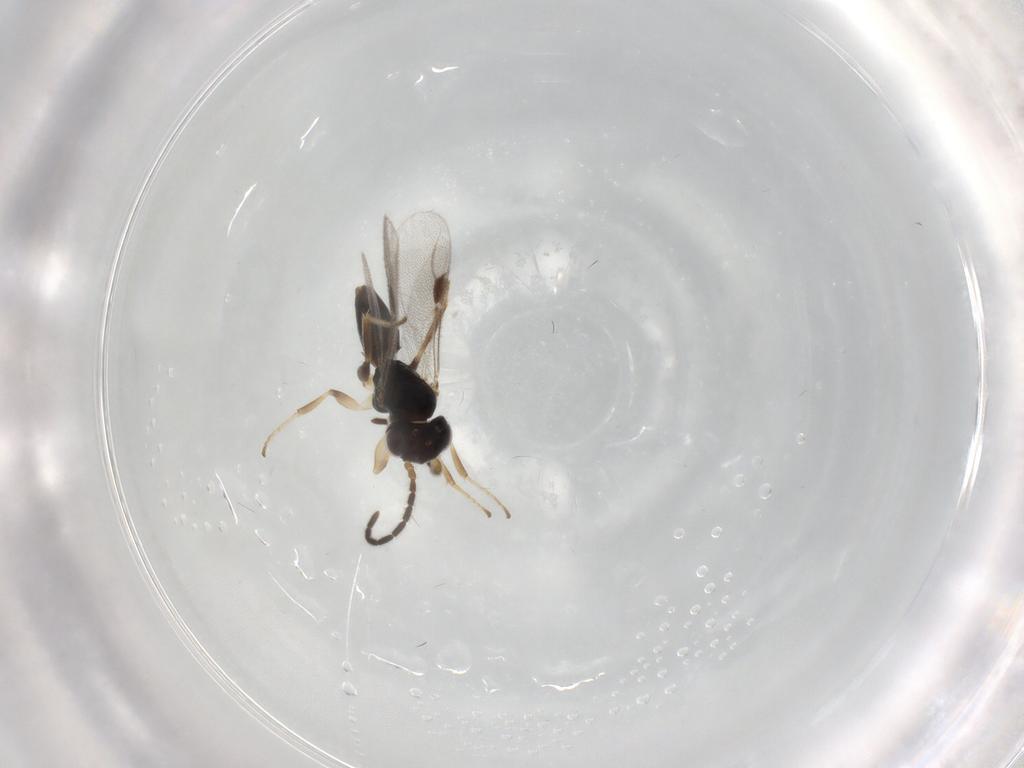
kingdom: Animalia
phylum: Arthropoda
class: Insecta
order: Hymenoptera
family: Dryinidae
